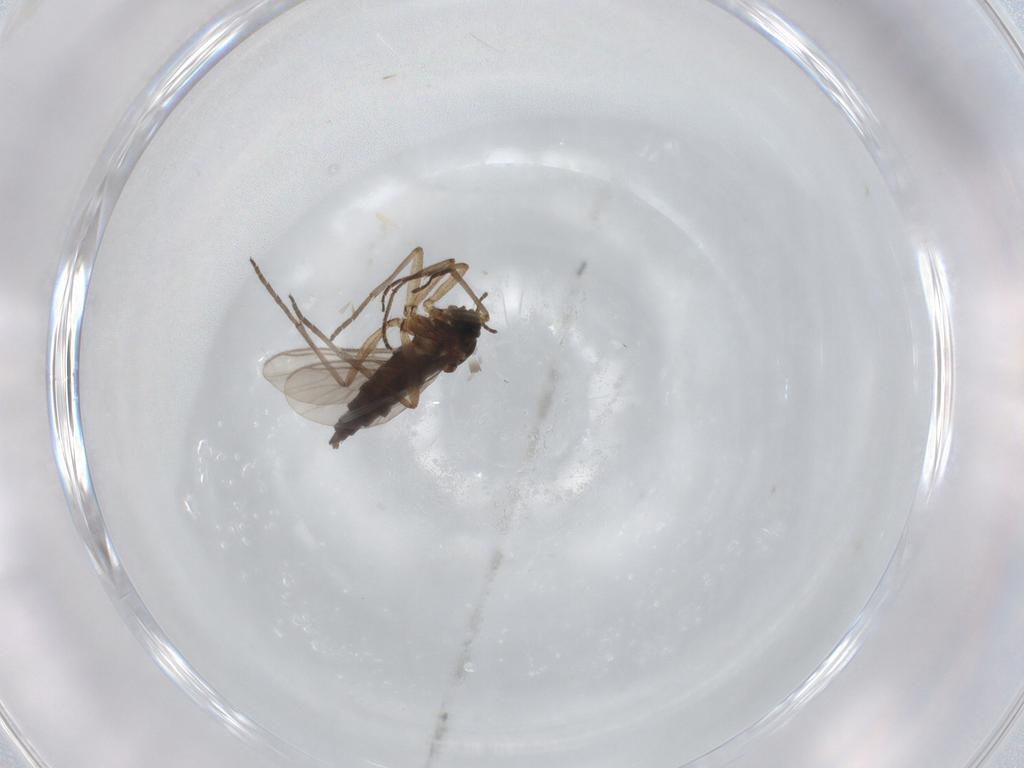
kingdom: Animalia
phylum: Arthropoda
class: Insecta
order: Diptera
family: Sciaridae
